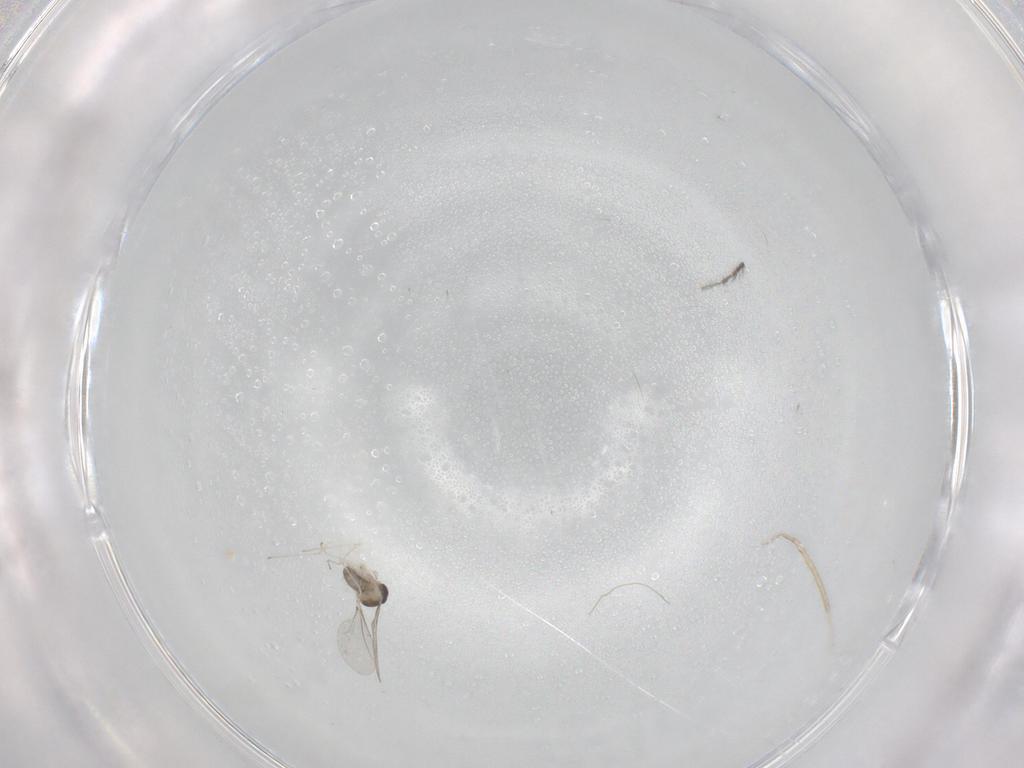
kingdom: Animalia
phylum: Arthropoda
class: Insecta
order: Diptera
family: Cecidomyiidae
